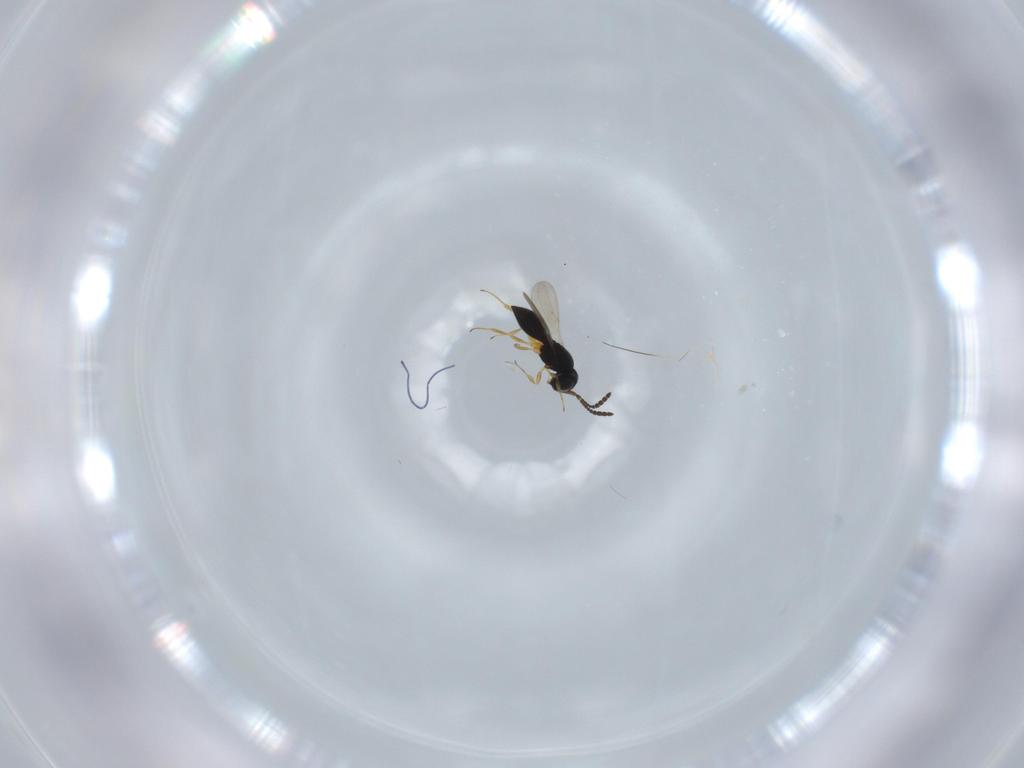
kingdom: Animalia
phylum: Arthropoda
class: Insecta
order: Hymenoptera
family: Scelionidae
